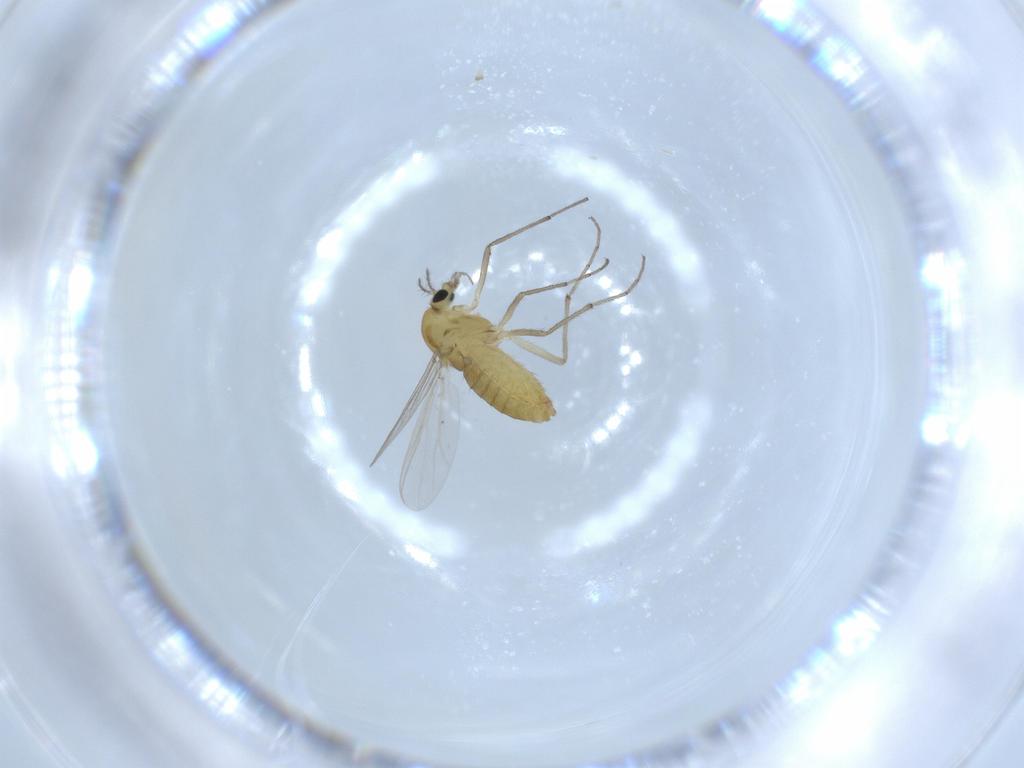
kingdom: Animalia
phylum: Arthropoda
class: Insecta
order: Diptera
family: Chironomidae
